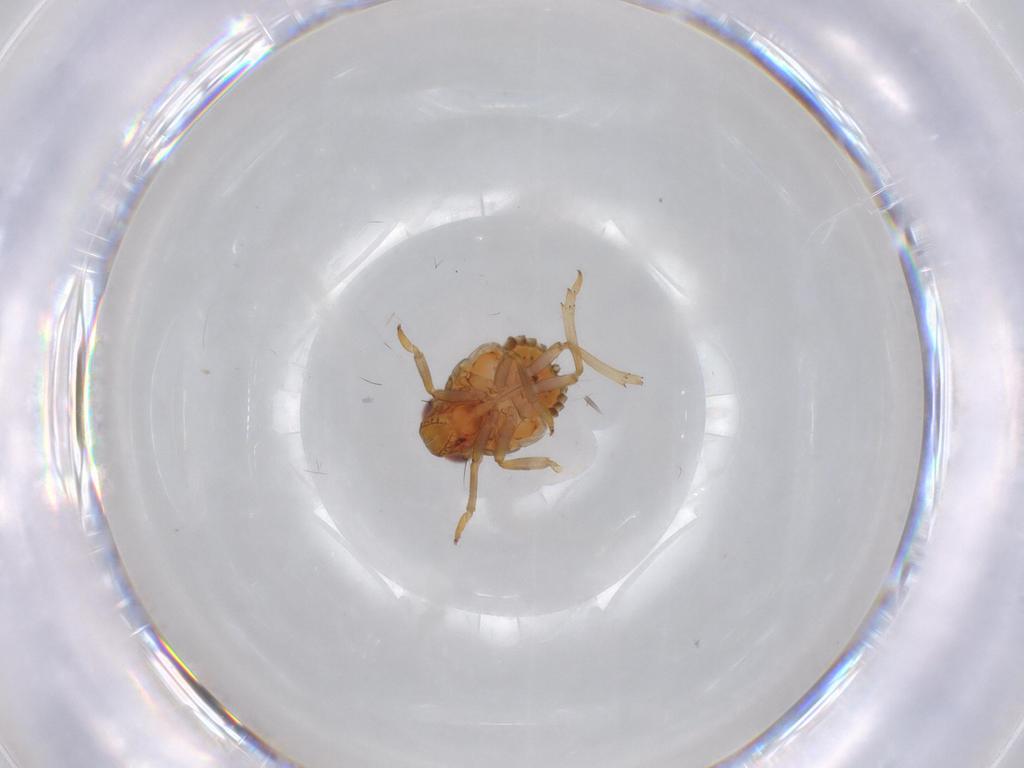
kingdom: Animalia
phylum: Arthropoda
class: Insecta
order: Hemiptera
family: Issidae
